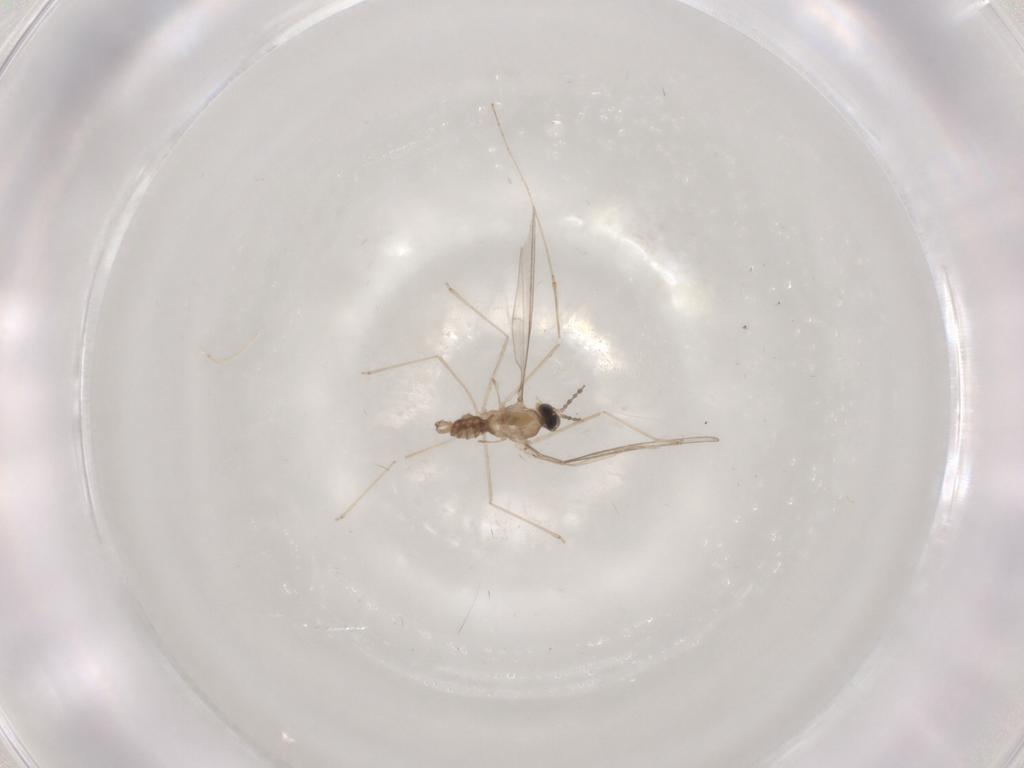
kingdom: Animalia
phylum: Arthropoda
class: Insecta
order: Diptera
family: Cecidomyiidae
